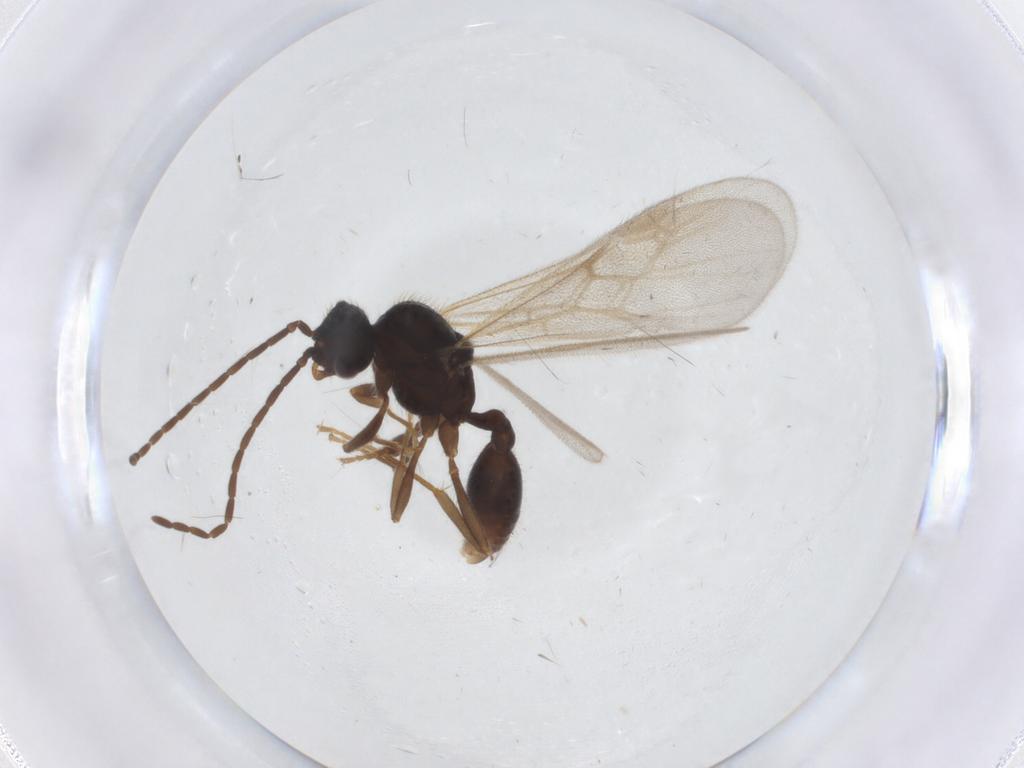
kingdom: Animalia
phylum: Arthropoda
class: Insecta
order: Hymenoptera
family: Formicidae
